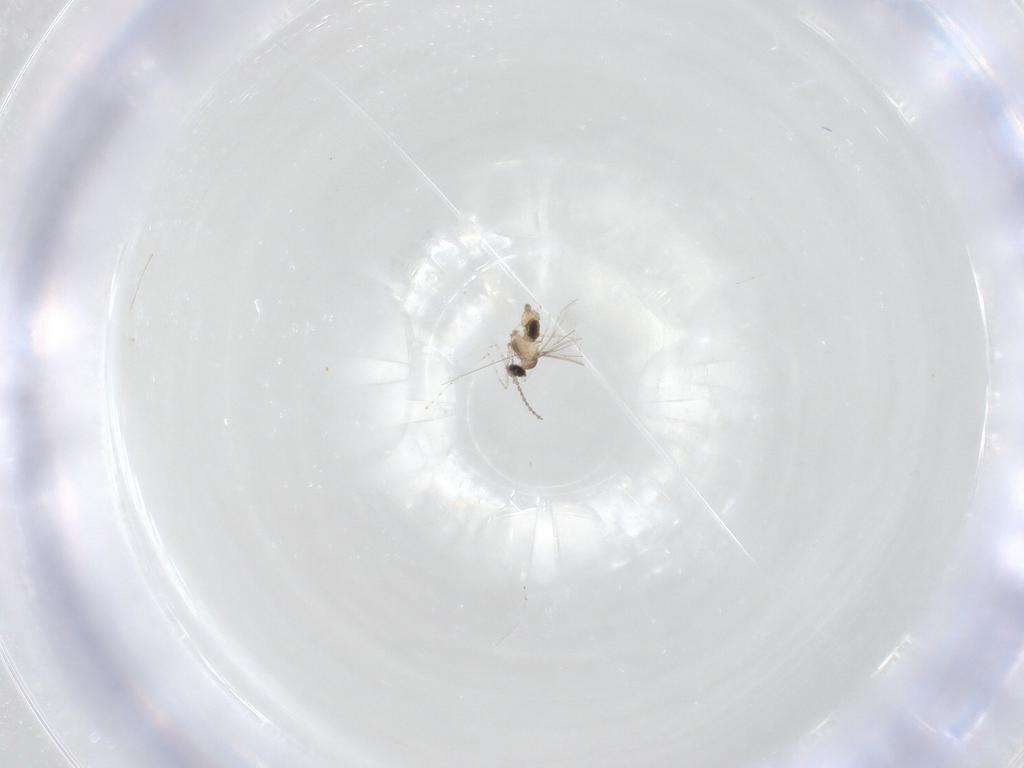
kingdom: Animalia
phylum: Arthropoda
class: Insecta
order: Diptera
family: Cecidomyiidae
